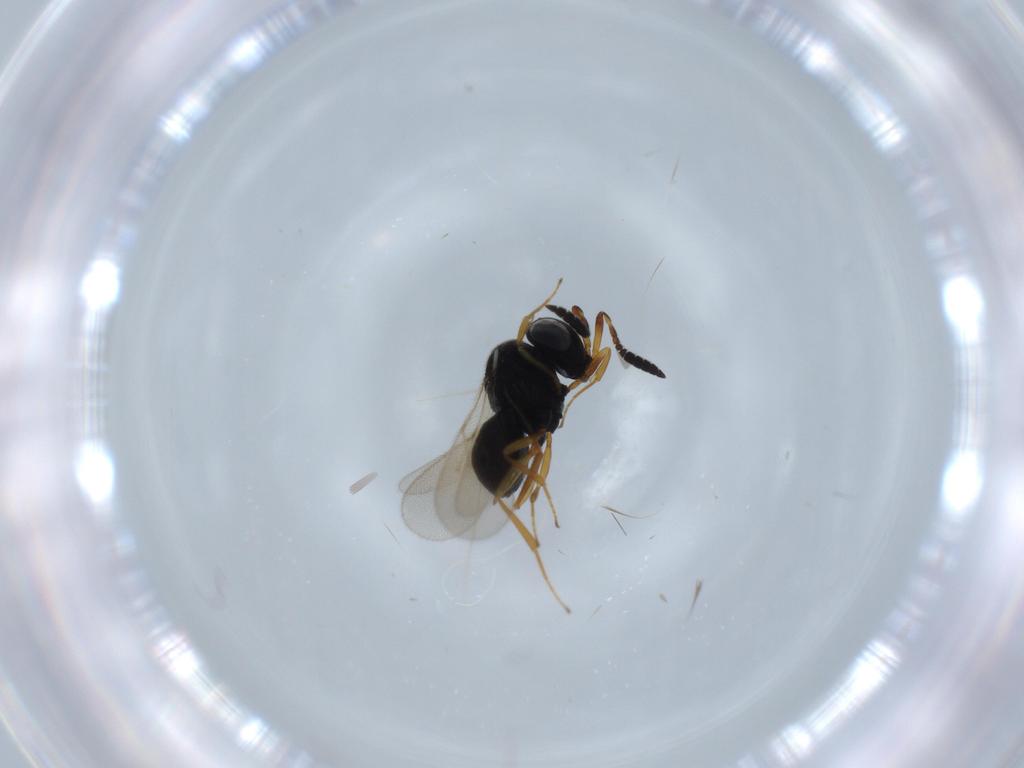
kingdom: Animalia
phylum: Arthropoda
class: Insecta
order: Hymenoptera
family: Scelionidae
